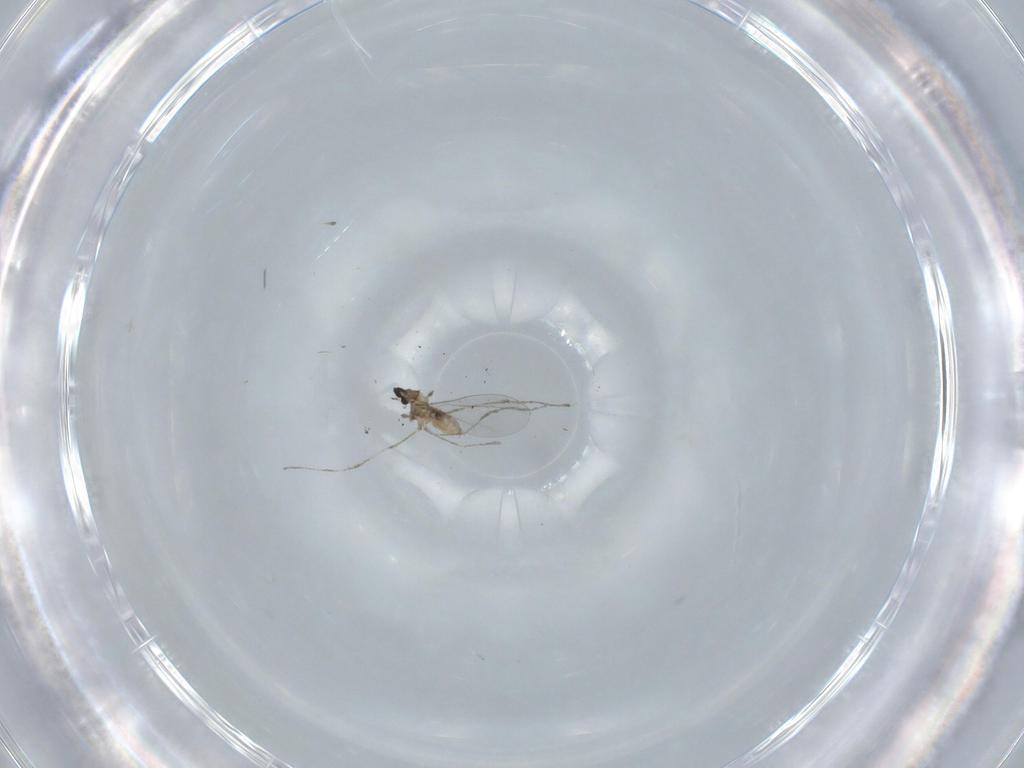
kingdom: Animalia
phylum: Arthropoda
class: Insecta
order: Diptera
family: Cecidomyiidae
